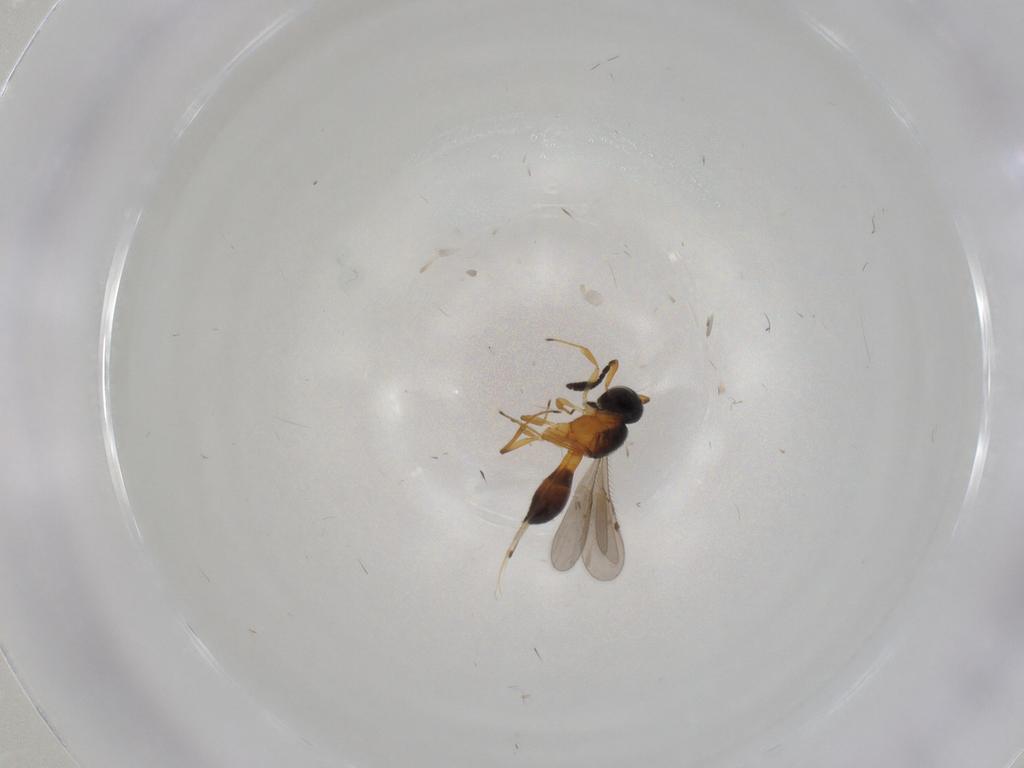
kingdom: Animalia
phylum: Arthropoda
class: Insecta
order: Hymenoptera
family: Scelionidae
